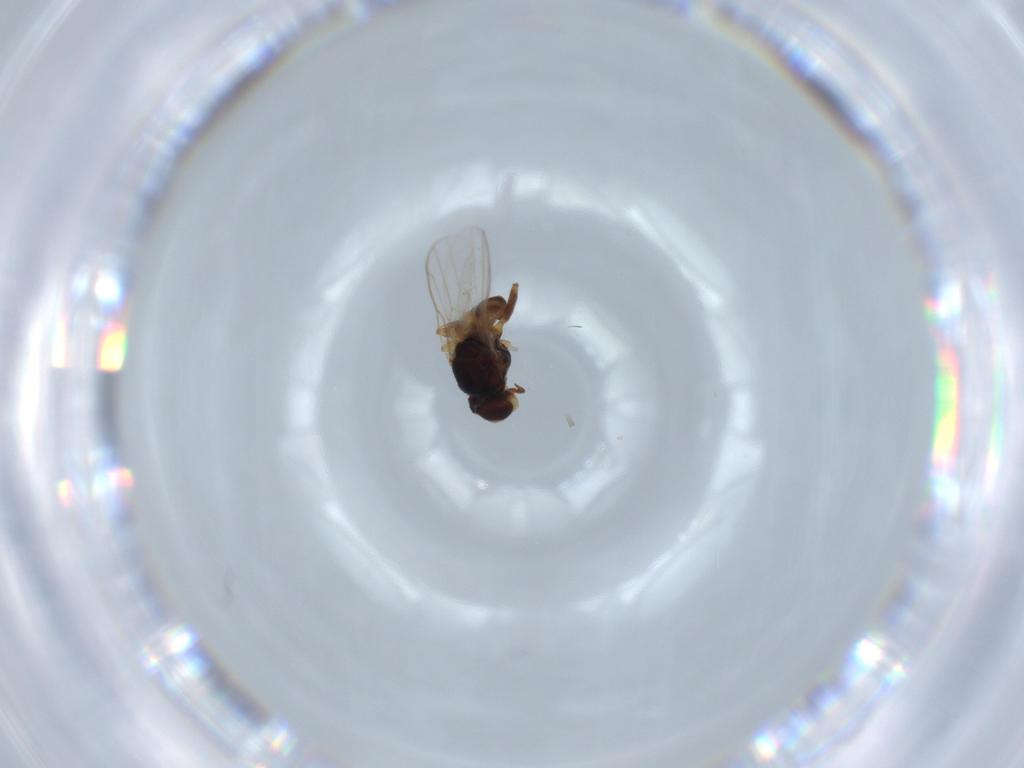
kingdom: Animalia
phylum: Arthropoda
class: Insecta
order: Diptera
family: Chloropidae
